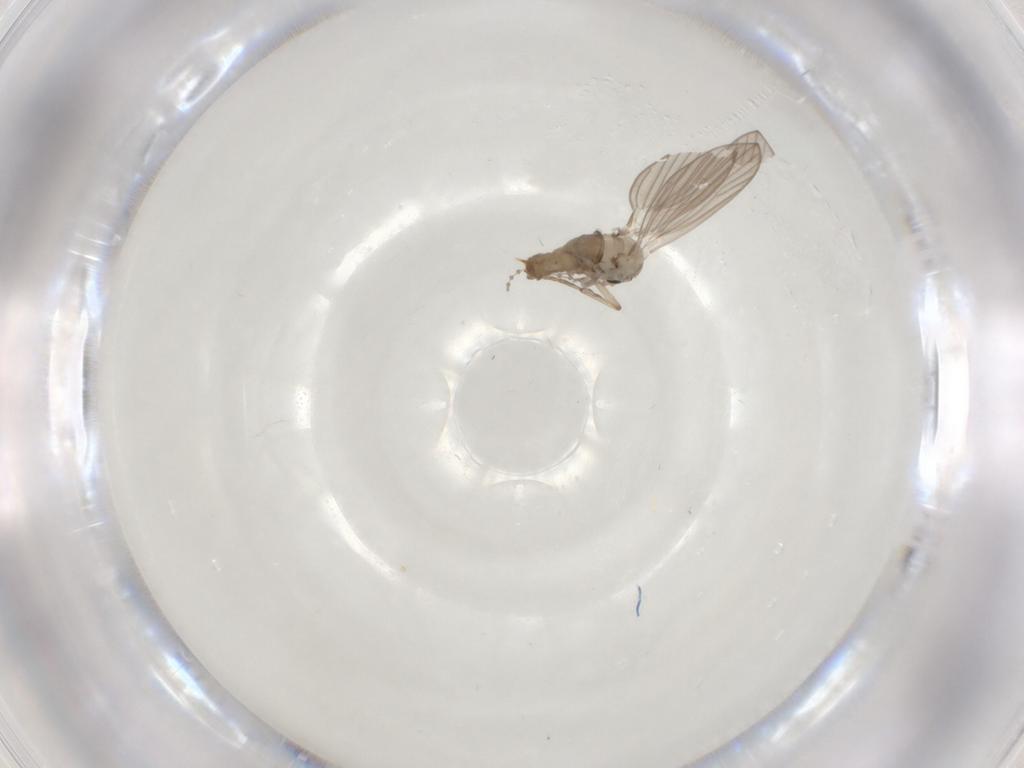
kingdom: Animalia
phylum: Arthropoda
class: Insecta
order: Diptera
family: Psychodidae
